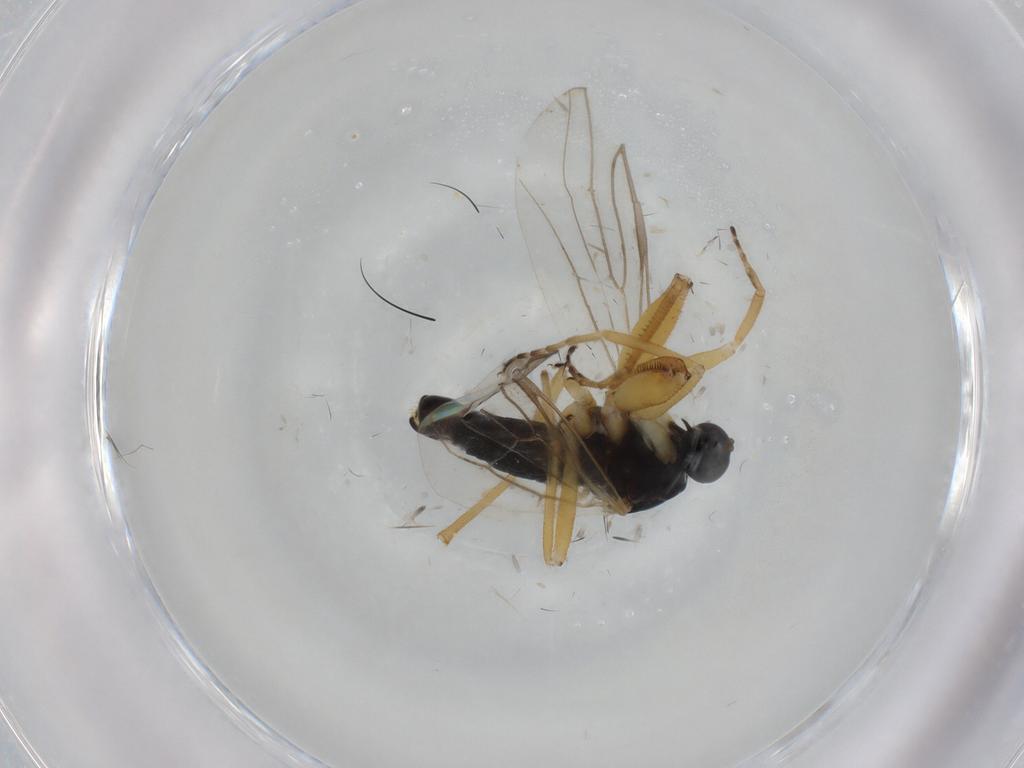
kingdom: Animalia
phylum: Arthropoda
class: Insecta
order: Diptera
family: Ceratopogonidae
